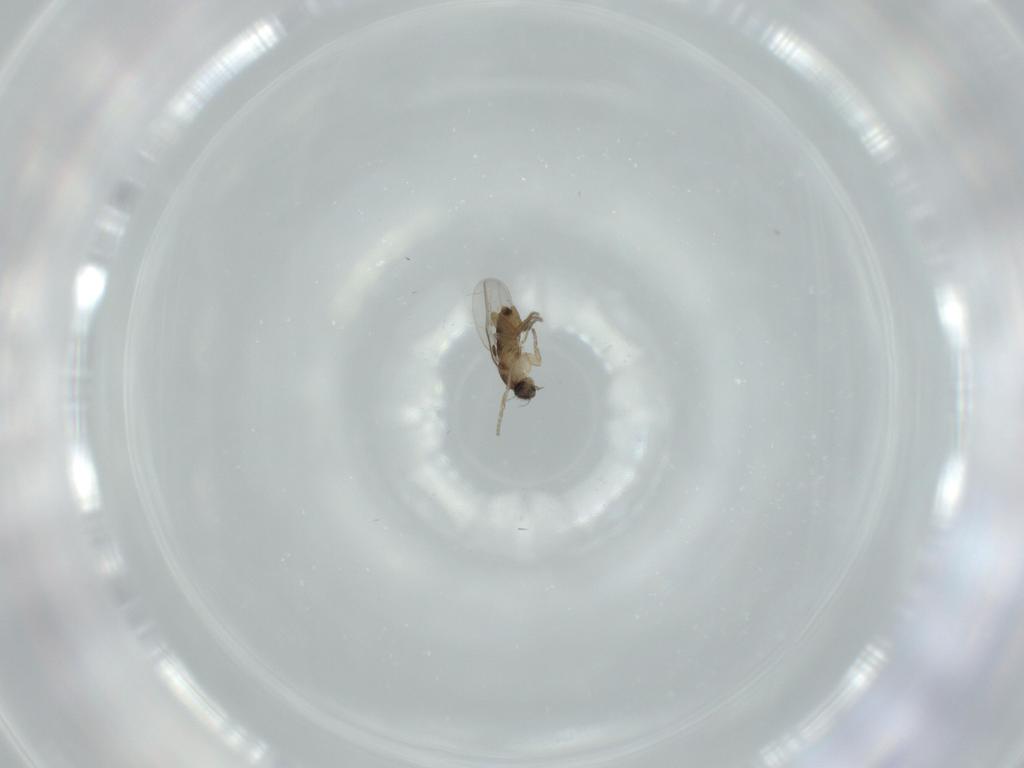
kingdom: Animalia
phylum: Arthropoda
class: Insecta
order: Diptera
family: Phoridae
